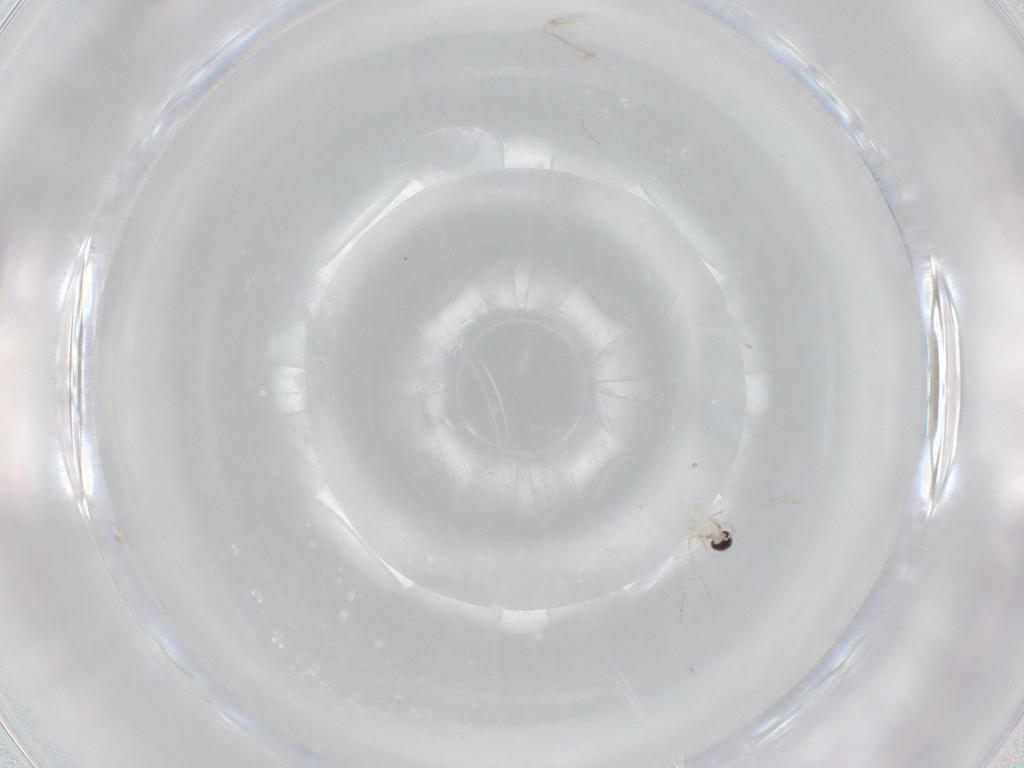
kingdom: Animalia
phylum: Arthropoda
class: Insecta
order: Diptera
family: Cecidomyiidae
